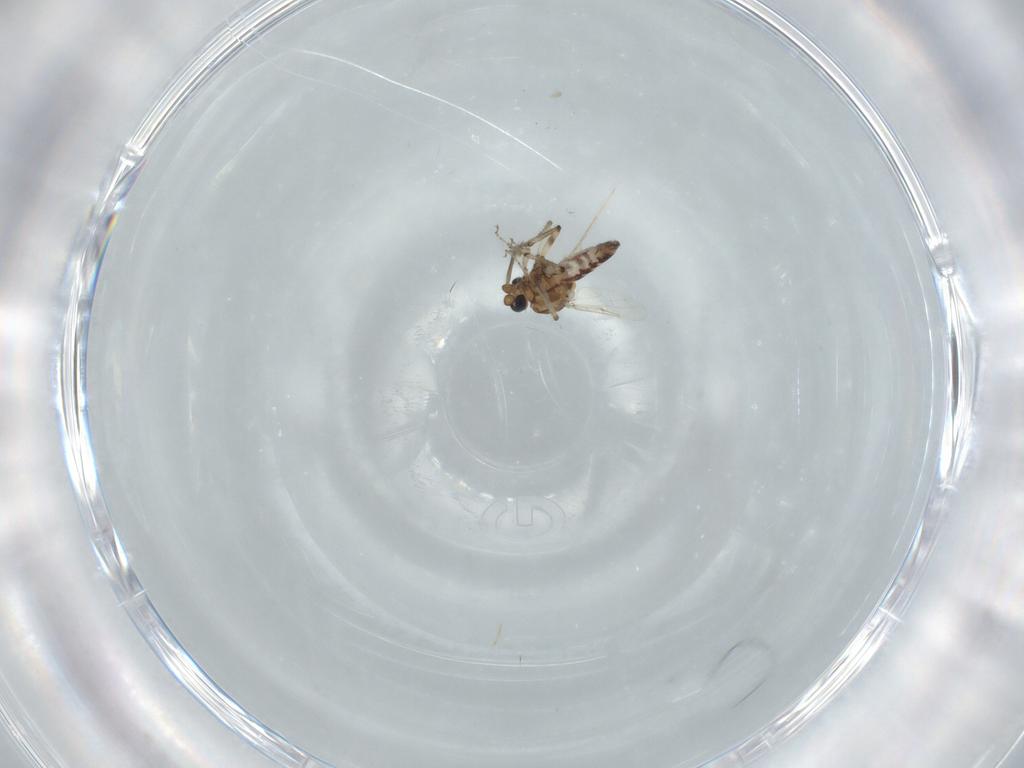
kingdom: Animalia
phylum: Arthropoda
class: Insecta
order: Diptera
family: Ceratopogonidae
